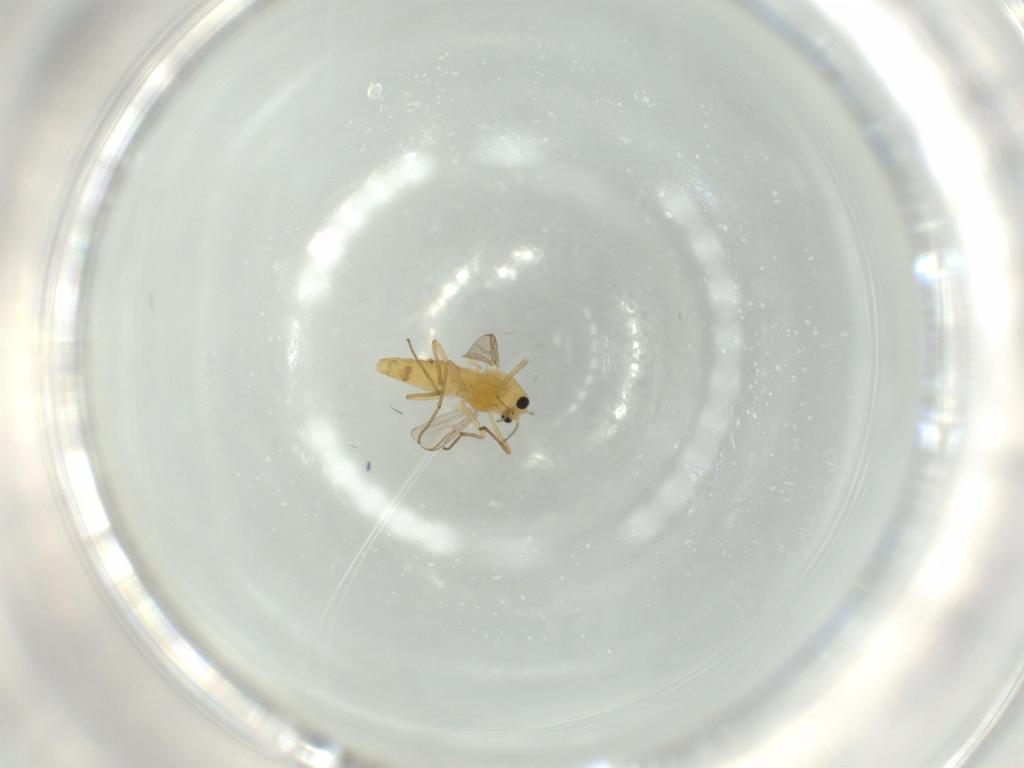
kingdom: Animalia
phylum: Arthropoda
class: Insecta
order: Diptera
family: Chironomidae
